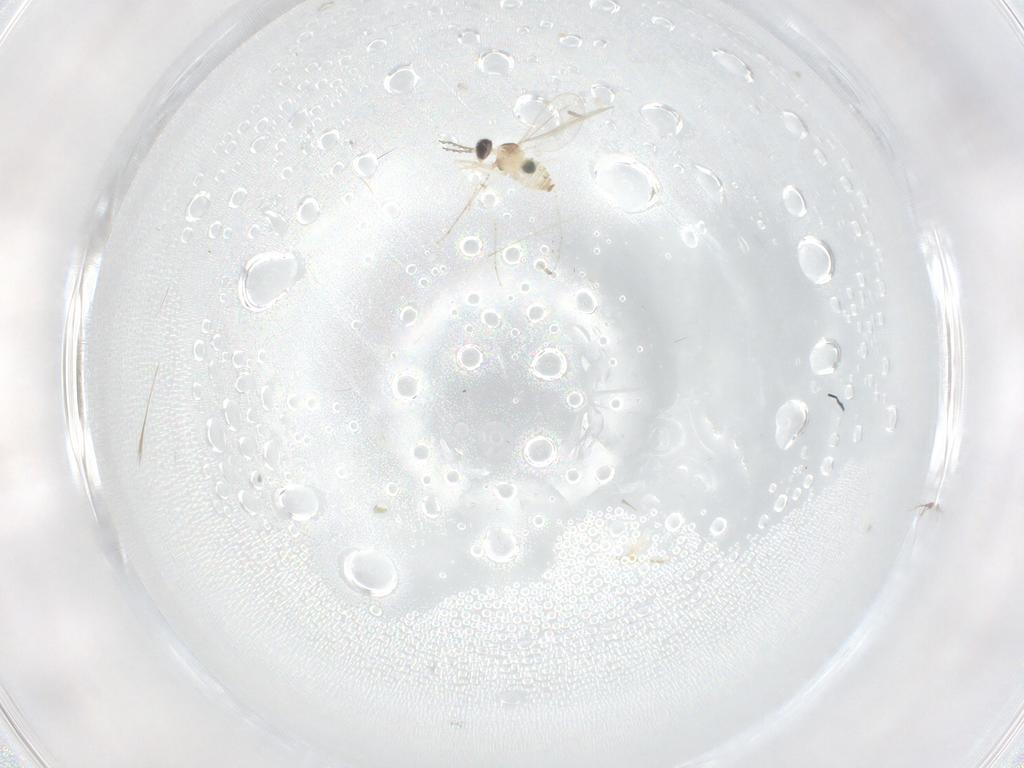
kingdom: Animalia
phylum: Arthropoda
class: Insecta
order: Diptera
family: Cecidomyiidae
